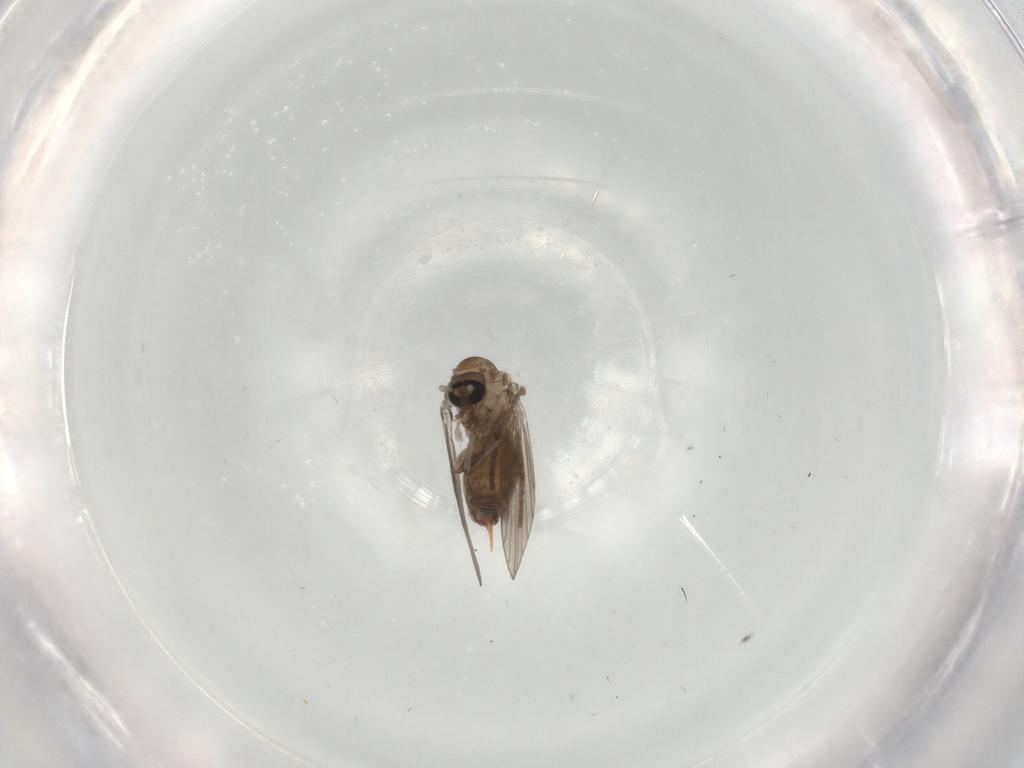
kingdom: Animalia
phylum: Arthropoda
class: Insecta
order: Diptera
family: Psychodidae
